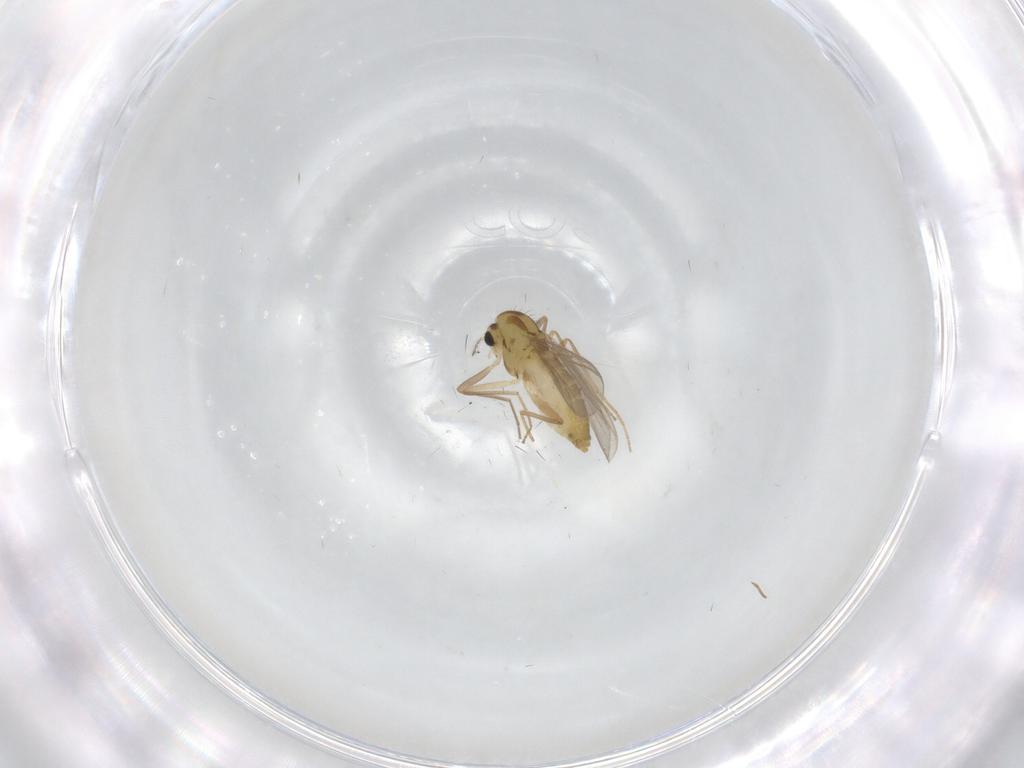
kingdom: Animalia
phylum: Arthropoda
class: Insecta
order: Diptera
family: Chironomidae
